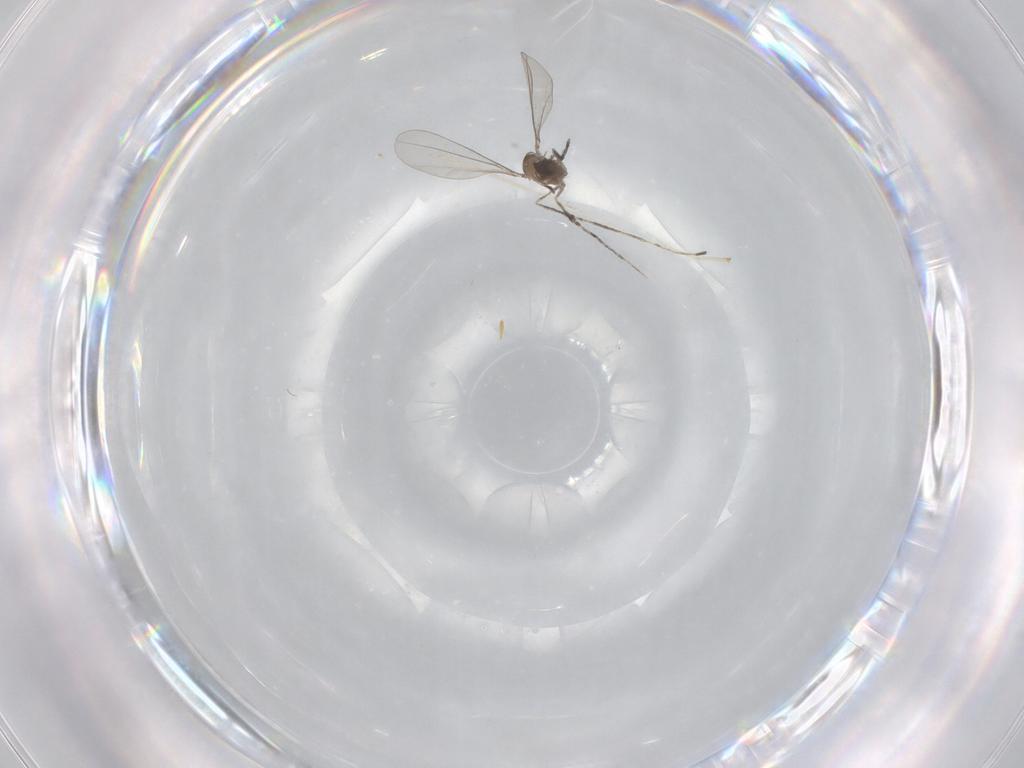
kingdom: Animalia
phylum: Arthropoda
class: Insecta
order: Diptera
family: Cecidomyiidae
